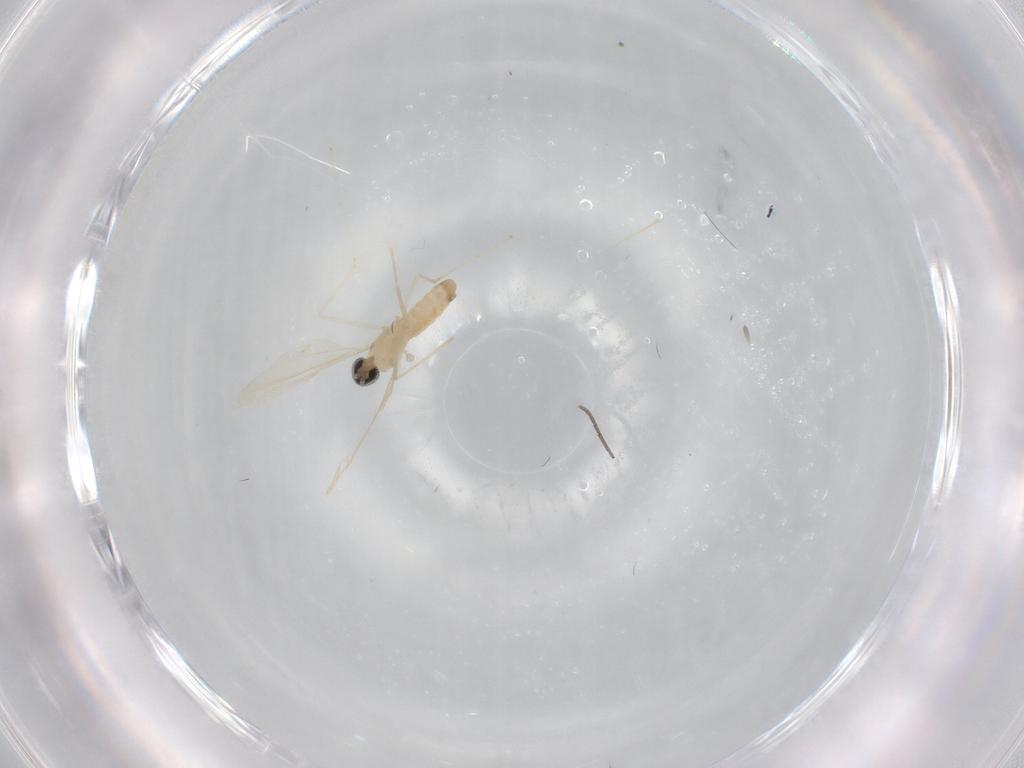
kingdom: Animalia
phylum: Arthropoda
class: Insecta
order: Diptera
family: Cecidomyiidae
